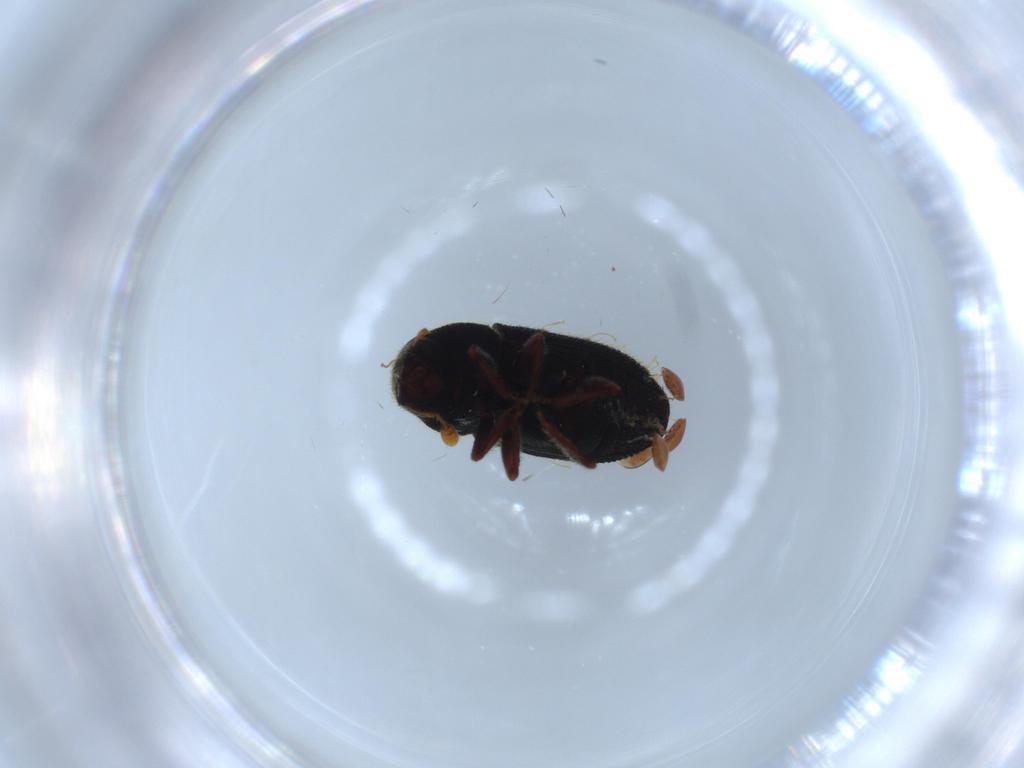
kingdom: Animalia
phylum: Arthropoda
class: Insecta
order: Coleoptera
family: Curculionidae
